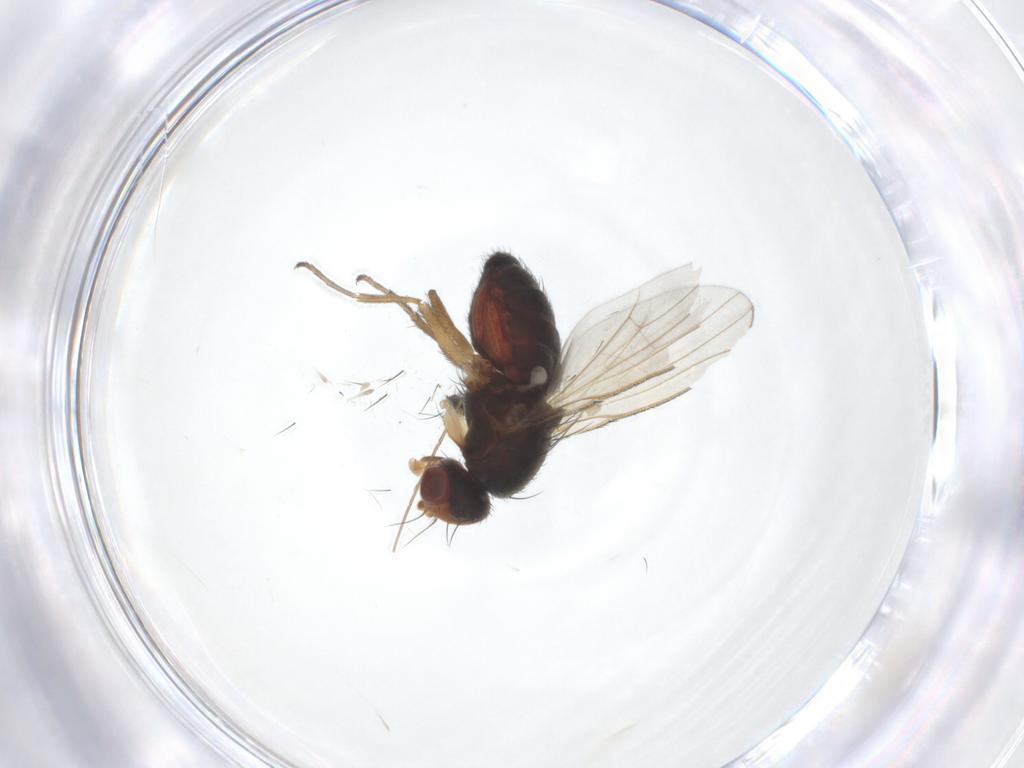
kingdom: Animalia
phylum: Arthropoda
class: Insecta
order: Diptera
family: Heleomyzidae
